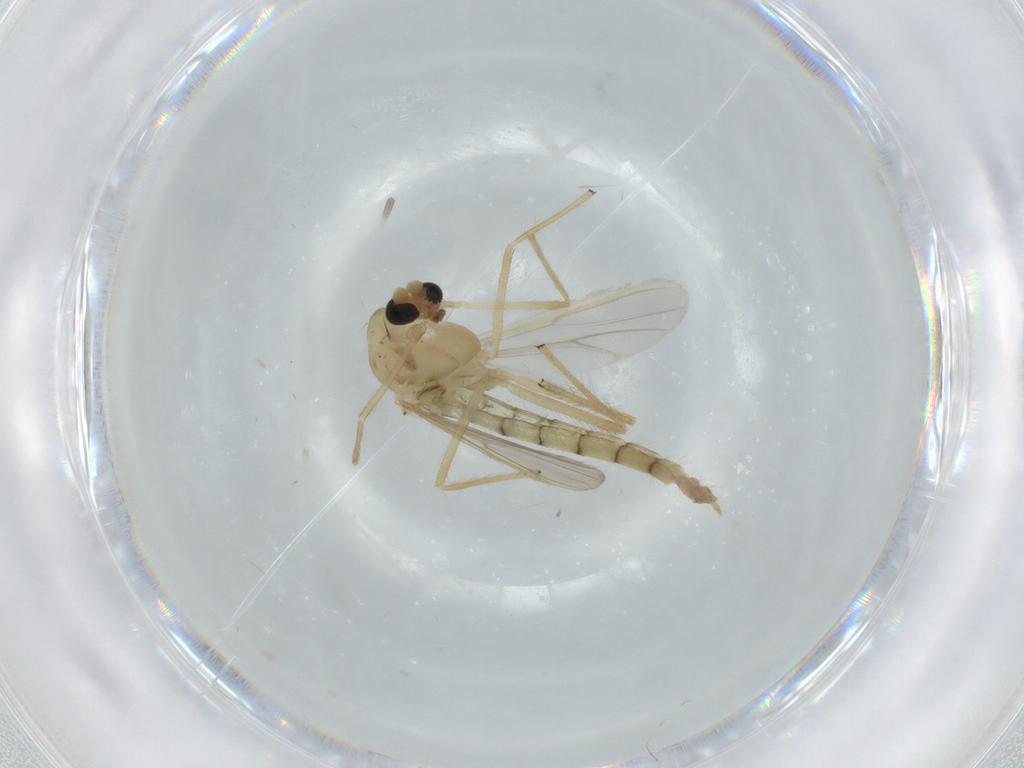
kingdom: Animalia
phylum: Arthropoda
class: Insecta
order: Diptera
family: Chironomidae
